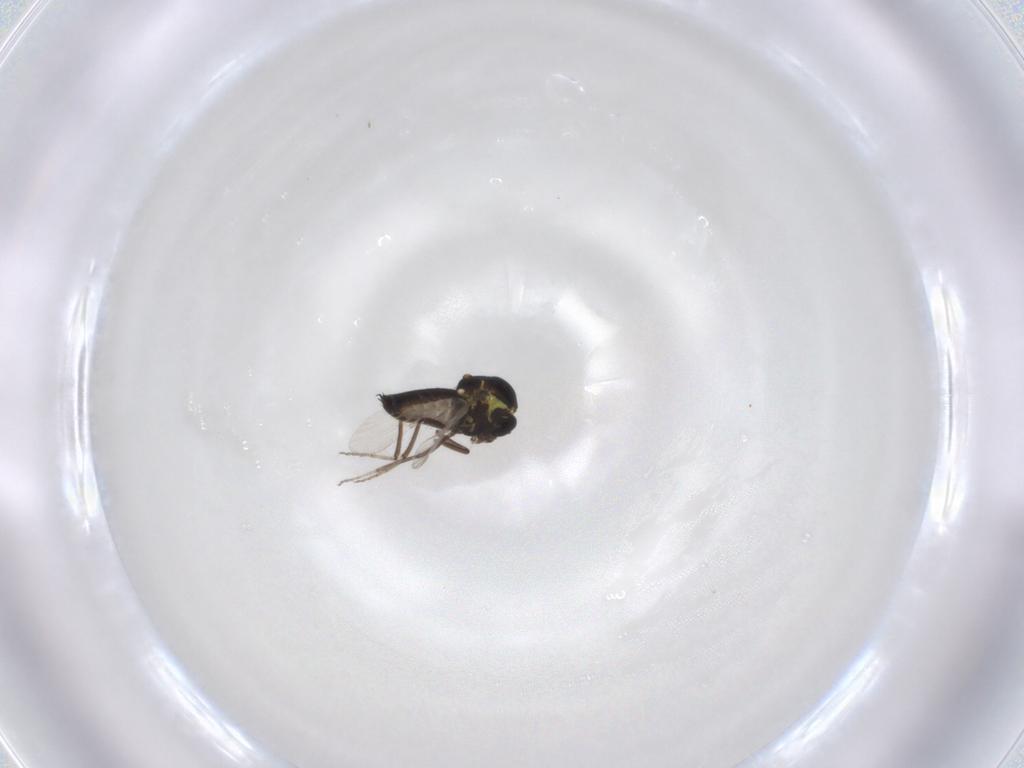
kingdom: Animalia
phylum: Arthropoda
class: Insecta
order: Diptera
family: Ceratopogonidae
